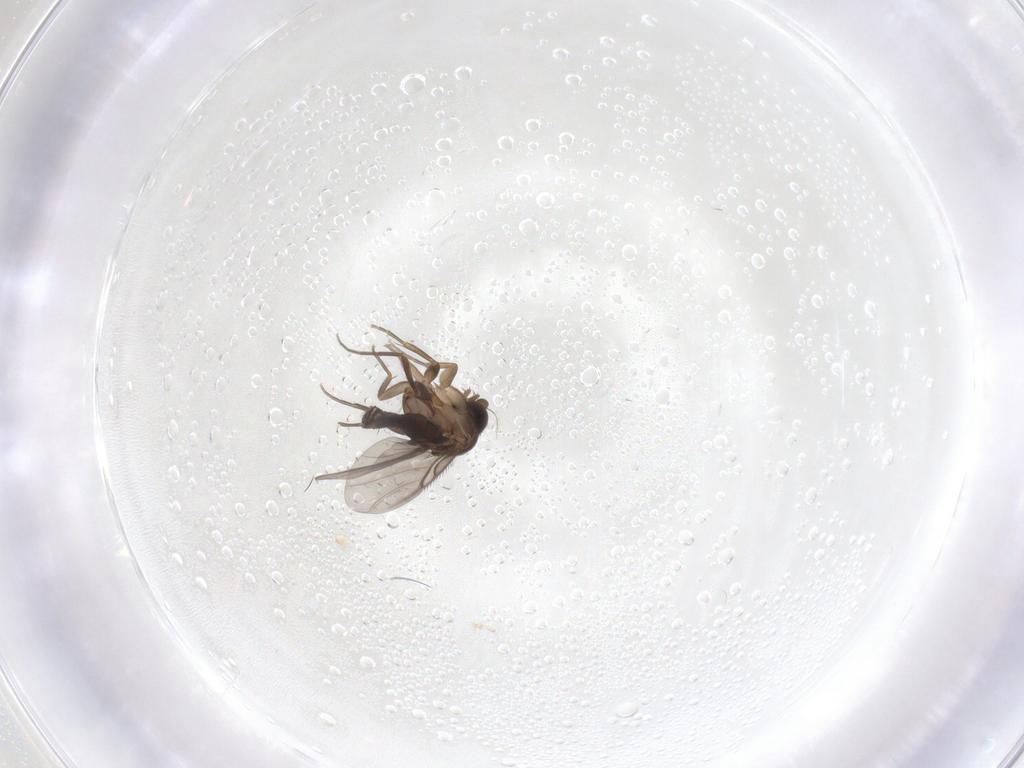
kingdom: Animalia
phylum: Arthropoda
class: Insecta
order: Diptera
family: Phoridae
